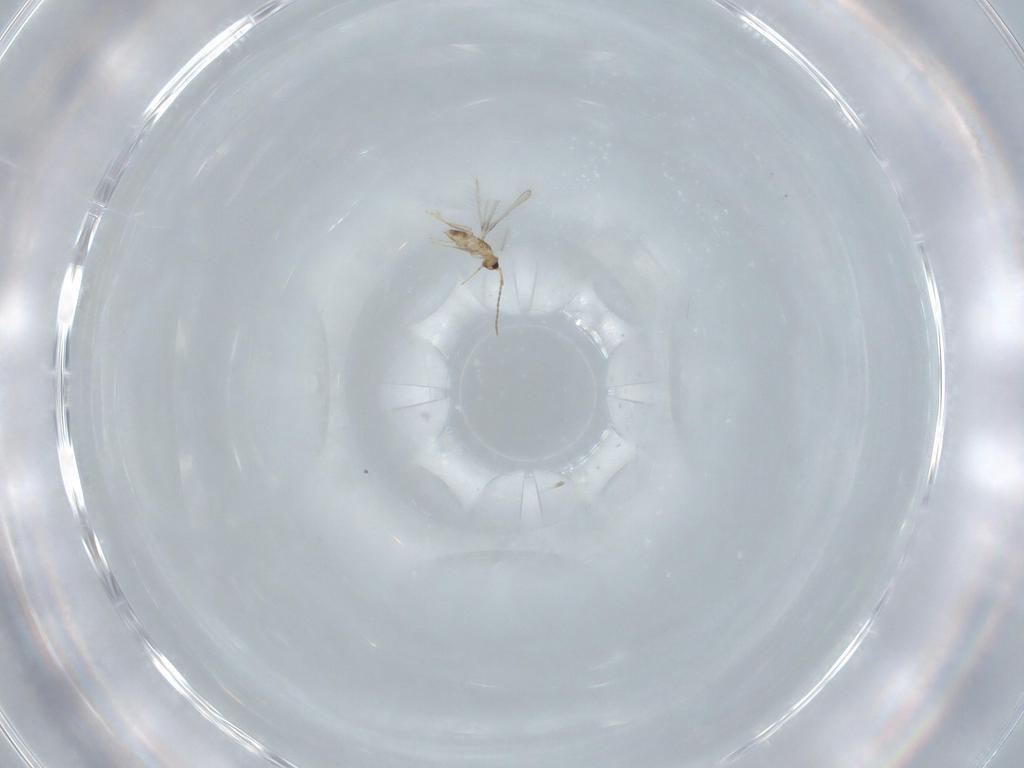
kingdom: Animalia
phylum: Arthropoda
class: Insecta
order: Hymenoptera
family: Mymaridae
